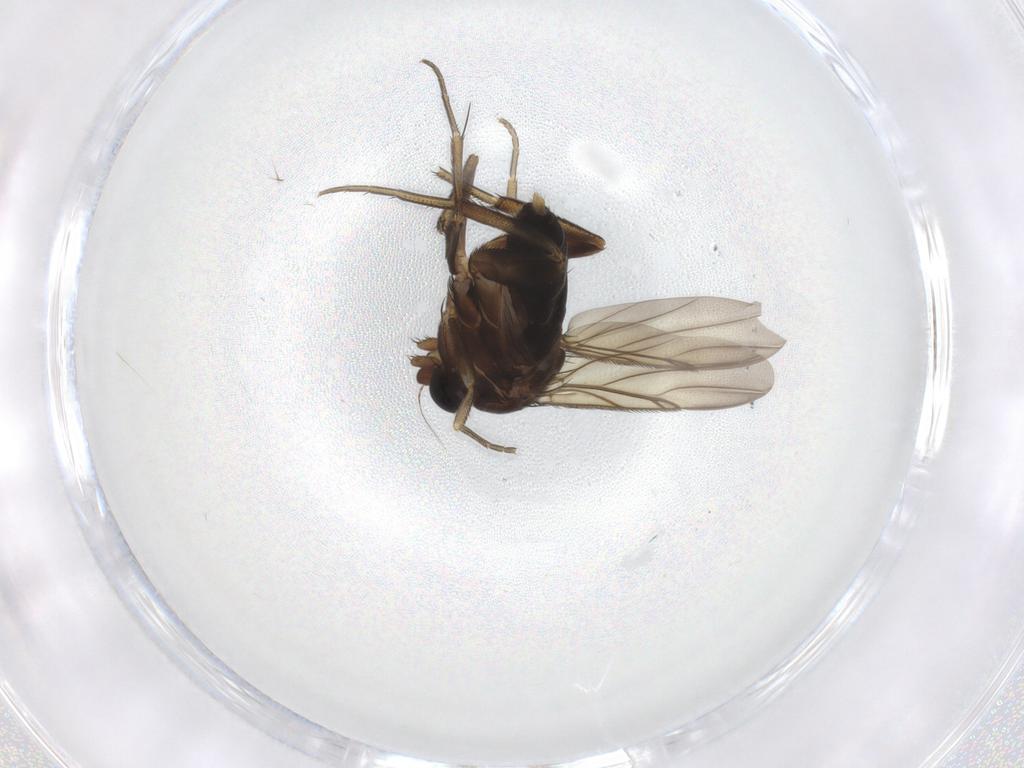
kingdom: Animalia
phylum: Arthropoda
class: Insecta
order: Diptera
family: Phoridae
